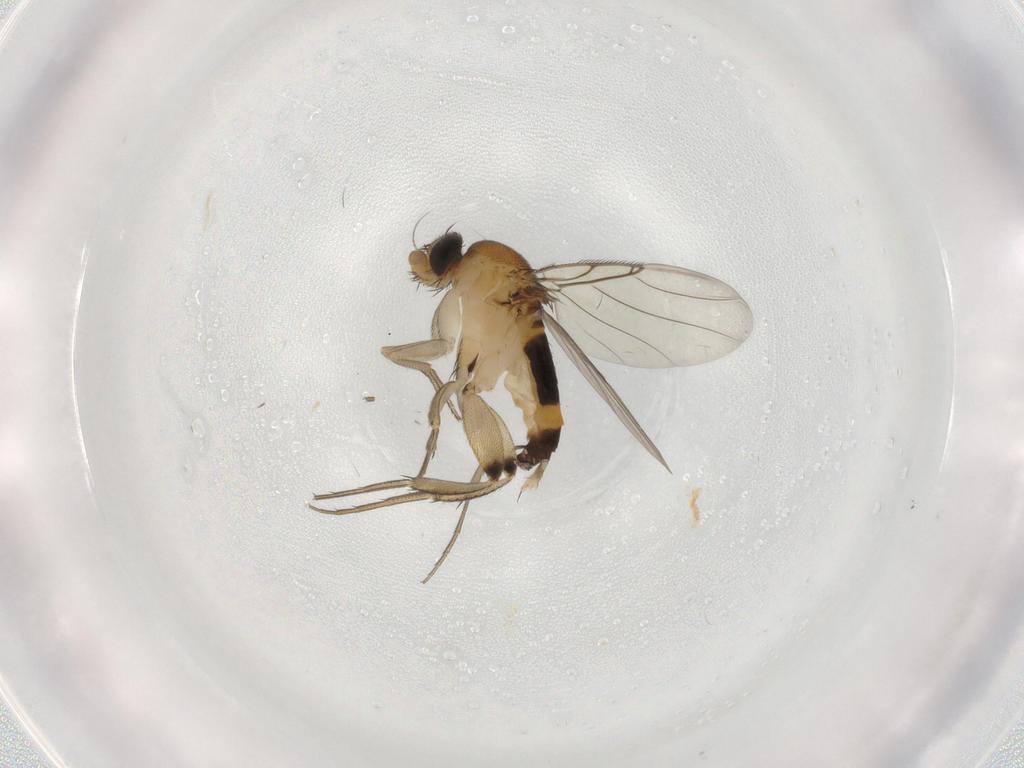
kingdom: Animalia
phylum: Arthropoda
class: Insecta
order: Diptera
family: Phoridae
